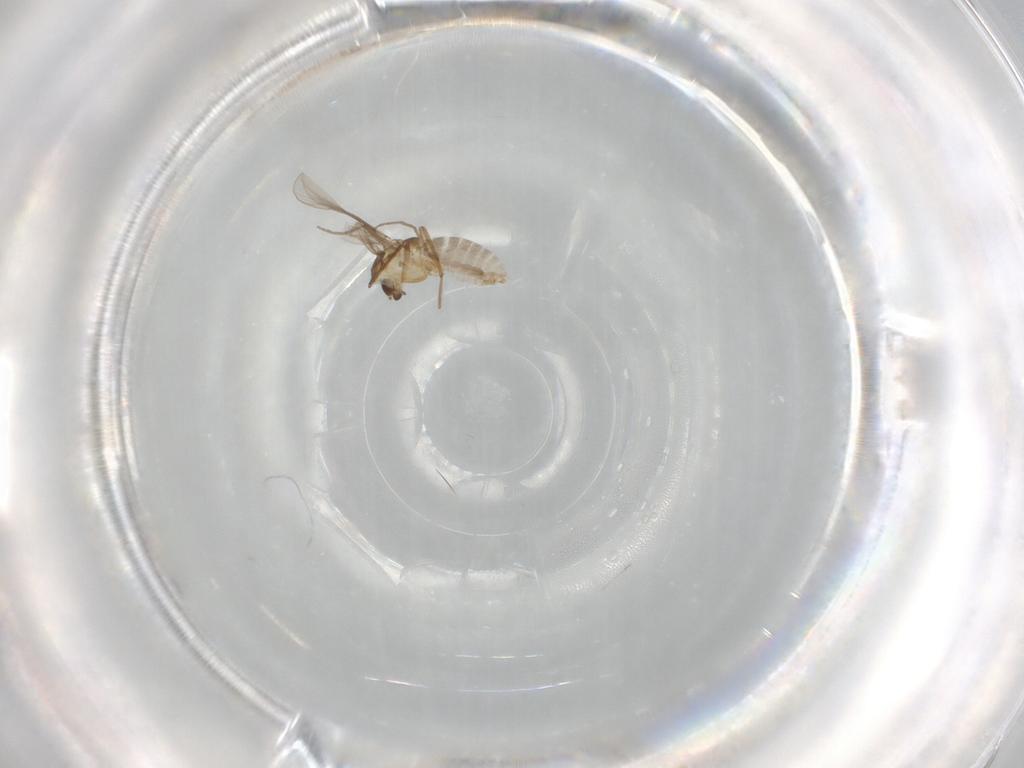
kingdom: Animalia
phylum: Arthropoda
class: Insecta
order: Diptera
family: Chironomidae
